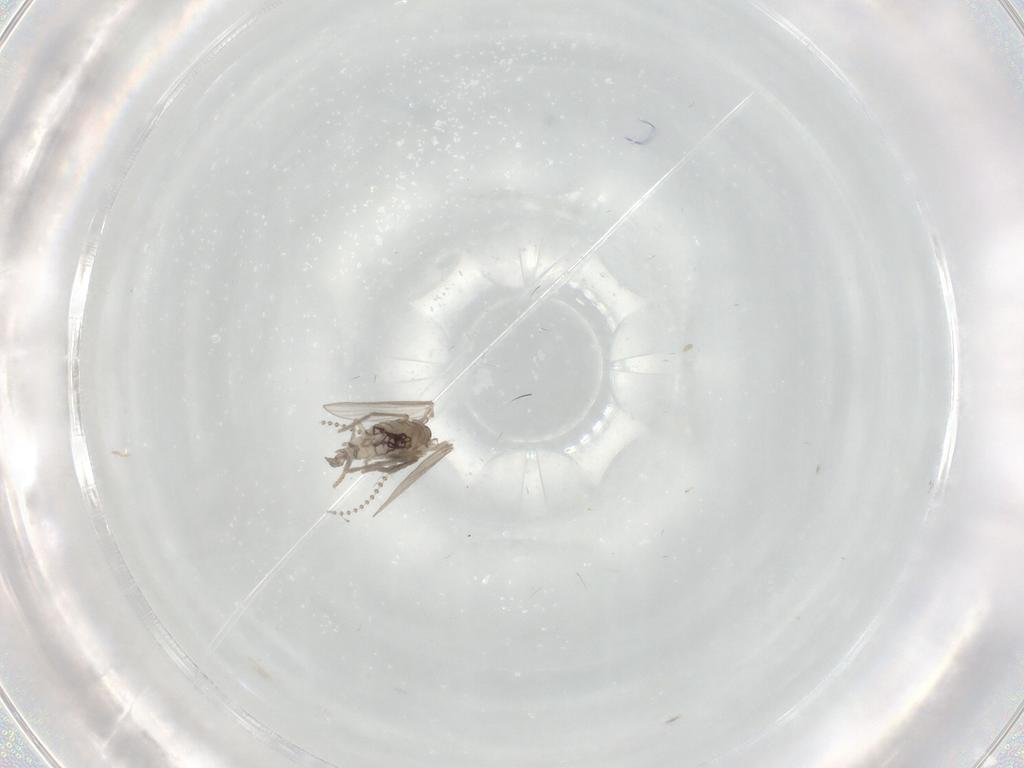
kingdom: Animalia
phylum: Arthropoda
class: Insecta
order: Diptera
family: Psychodidae
